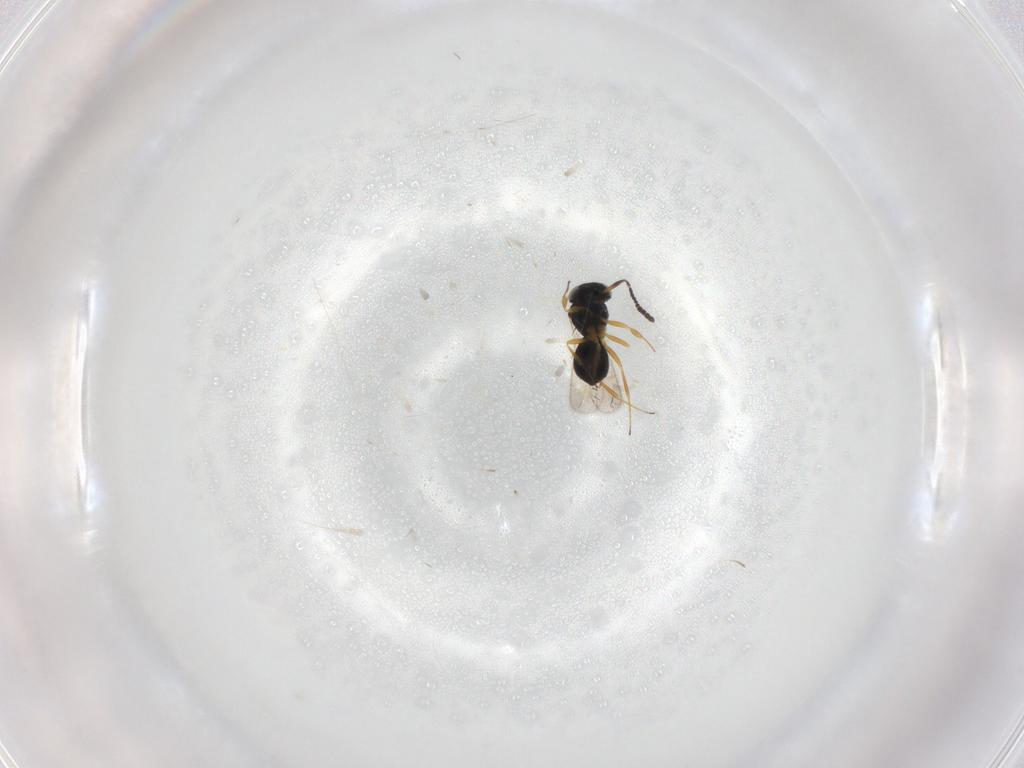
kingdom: Animalia
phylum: Arthropoda
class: Insecta
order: Hymenoptera
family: Scelionidae
